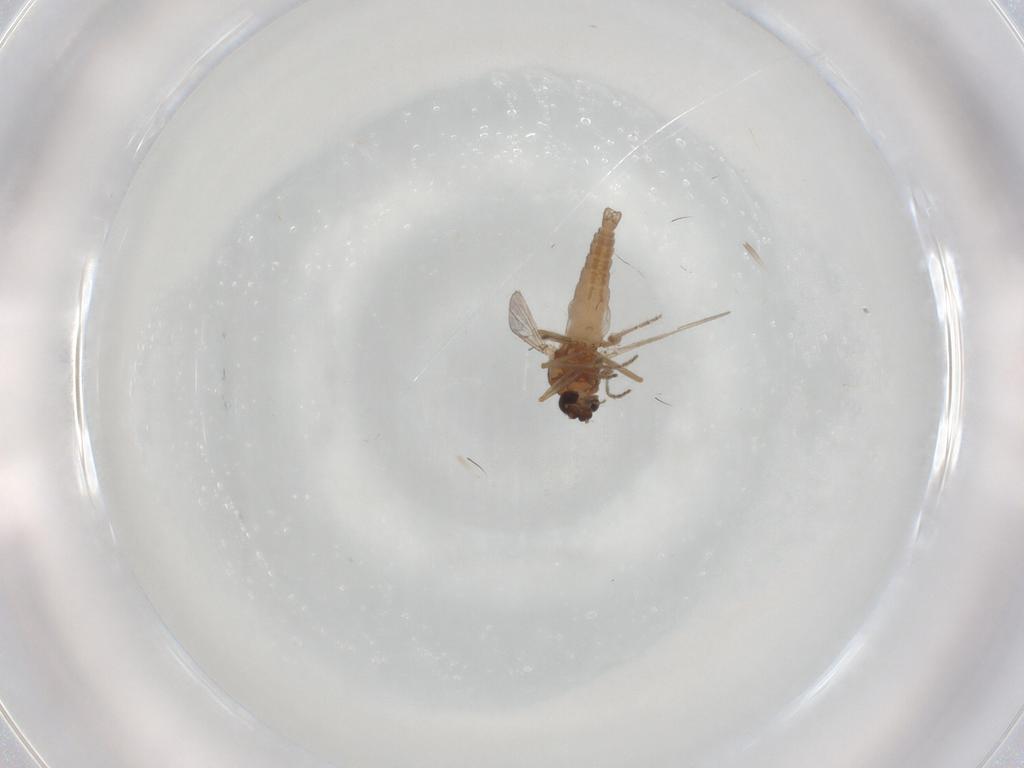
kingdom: Animalia
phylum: Arthropoda
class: Insecta
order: Diptera
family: Ceratopogonidae
